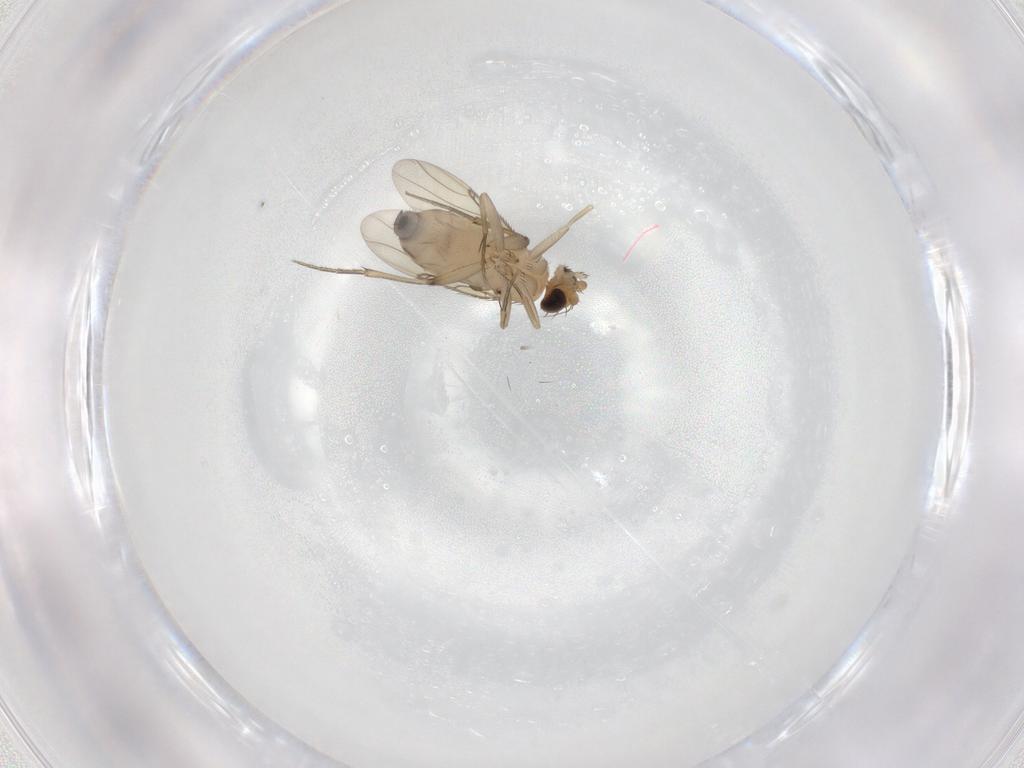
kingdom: Animalia
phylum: Arthropoda
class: Insecta
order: Diptera
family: Phoridae
